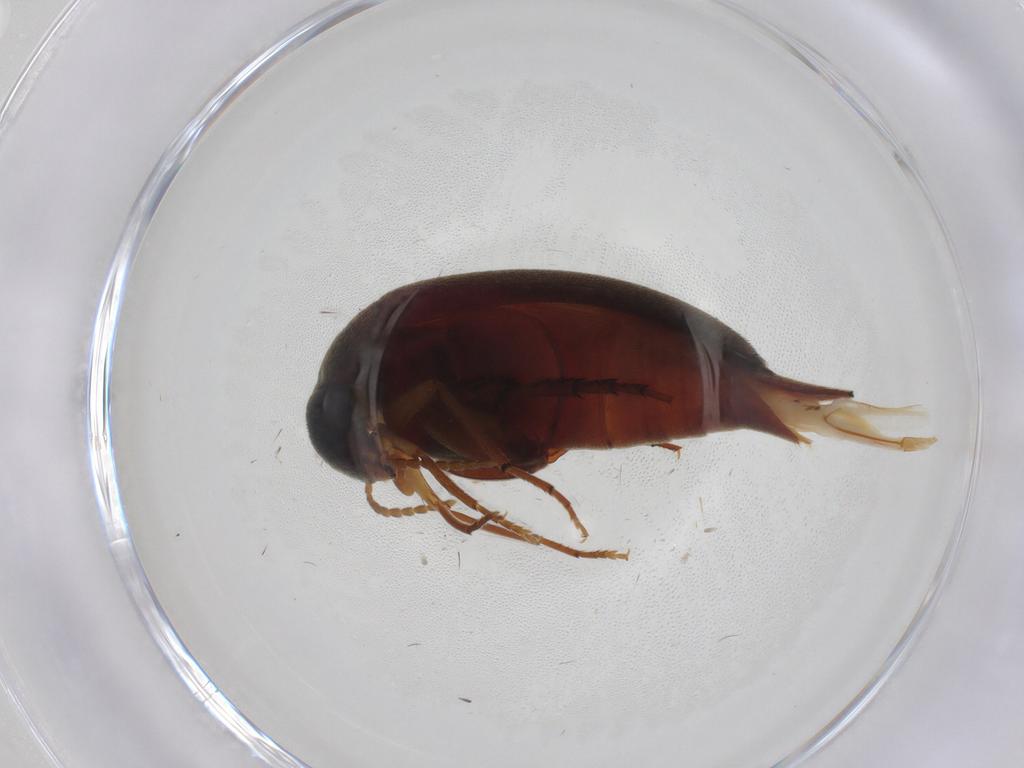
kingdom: Animalia
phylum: Arthropoda
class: Insecta
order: Coleoptera
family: Mordellidae
